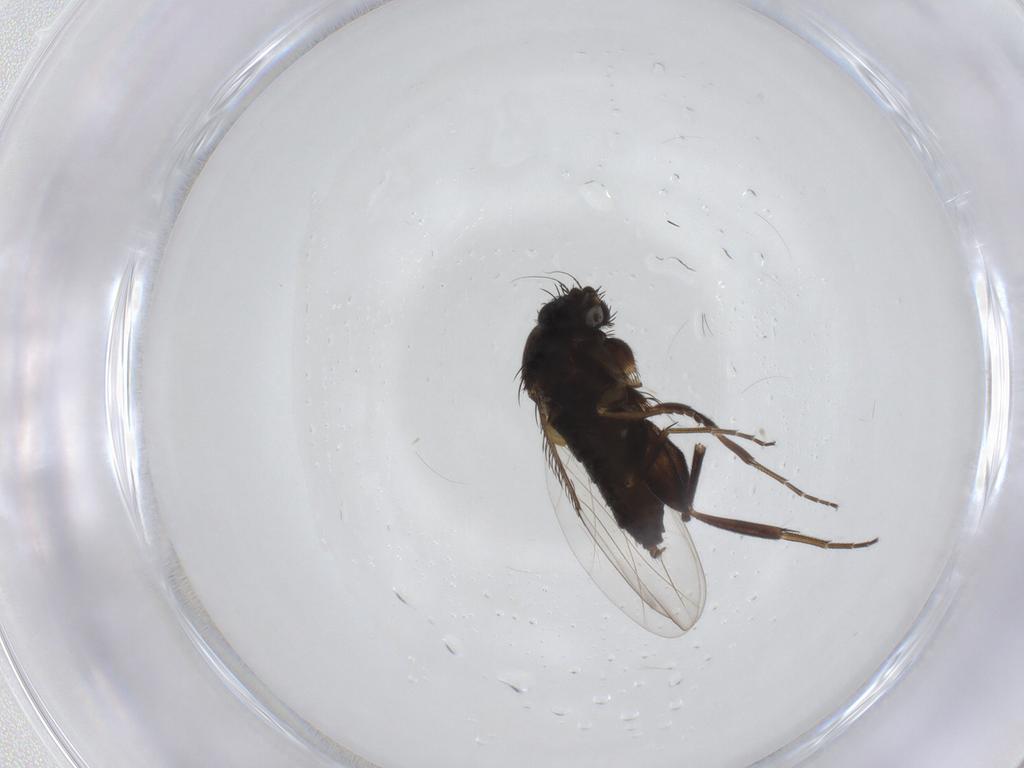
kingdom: Animalia
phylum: Arthropoda
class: Insecta
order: Diptera
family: Phoridae
